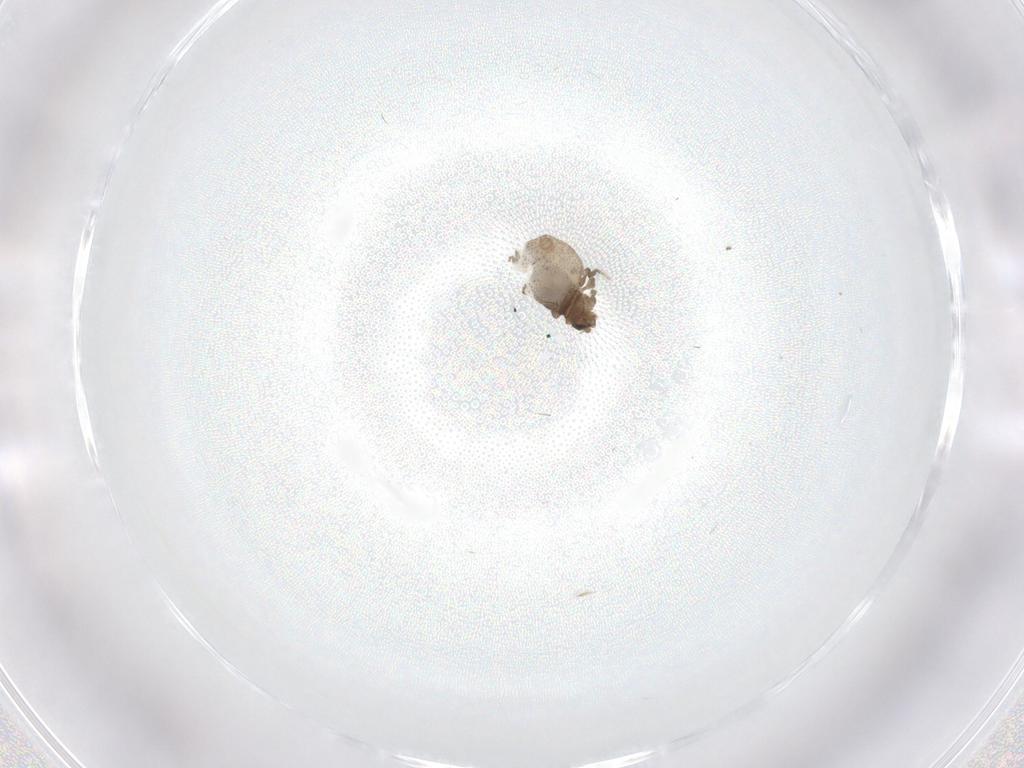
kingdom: Animalia
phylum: Arthropoda
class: Insecta
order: Diptera
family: Phoridae
